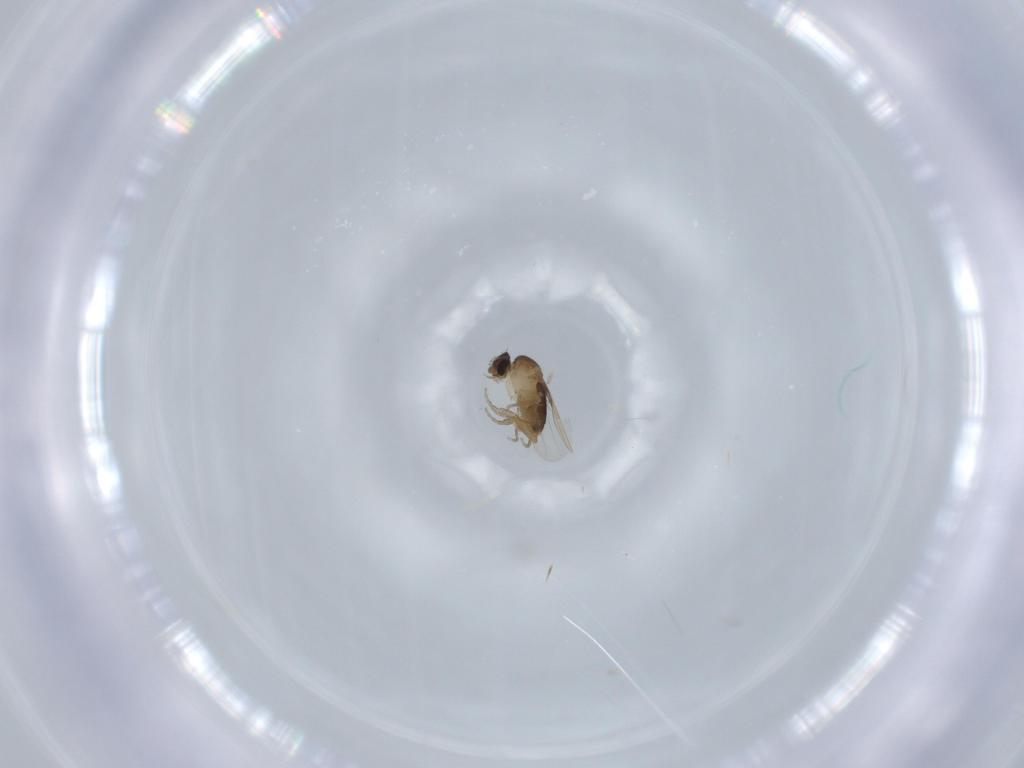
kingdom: Animalia
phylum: Arthropoda
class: Insecta
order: Diptera
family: Phoridae
